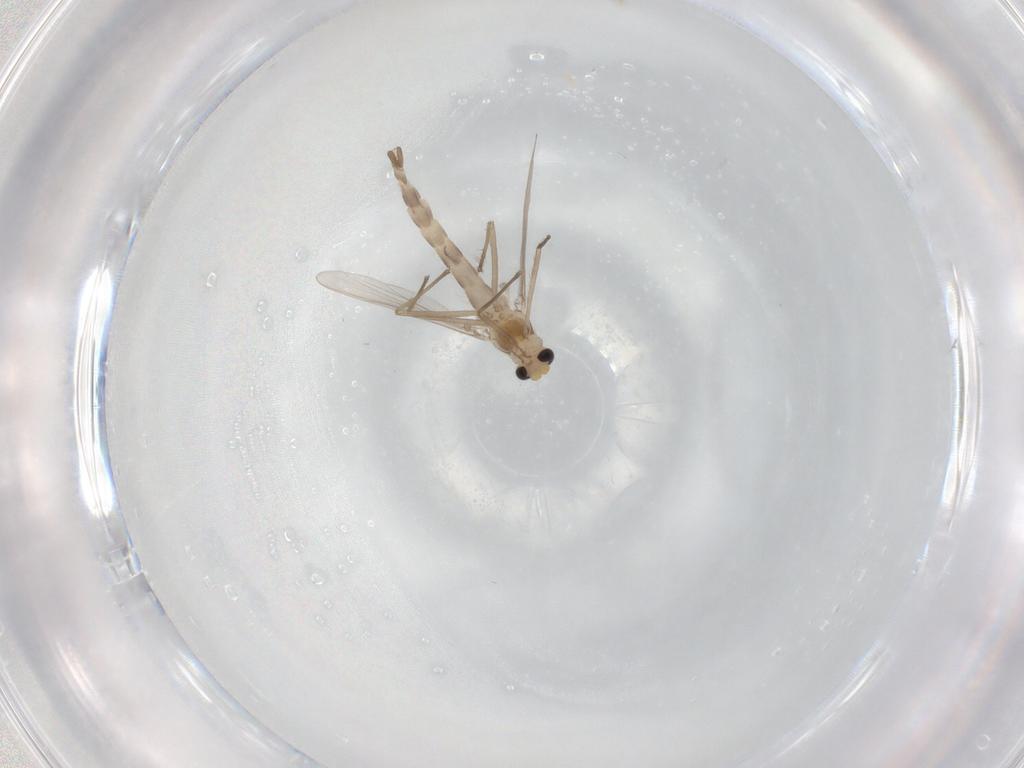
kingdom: Animalia
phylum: Arthropoda
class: Insecta
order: Diptera
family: Chironomidae
